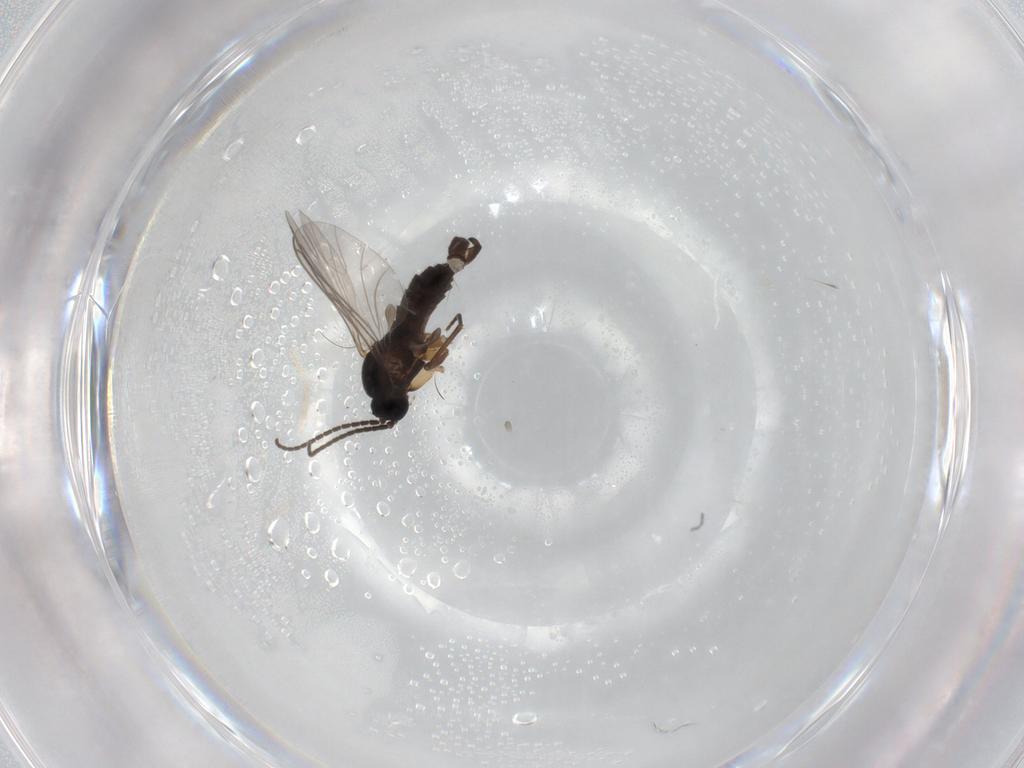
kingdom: Animalia
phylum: Arthropoda
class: Insecta
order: Diptera
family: Sciaridae
